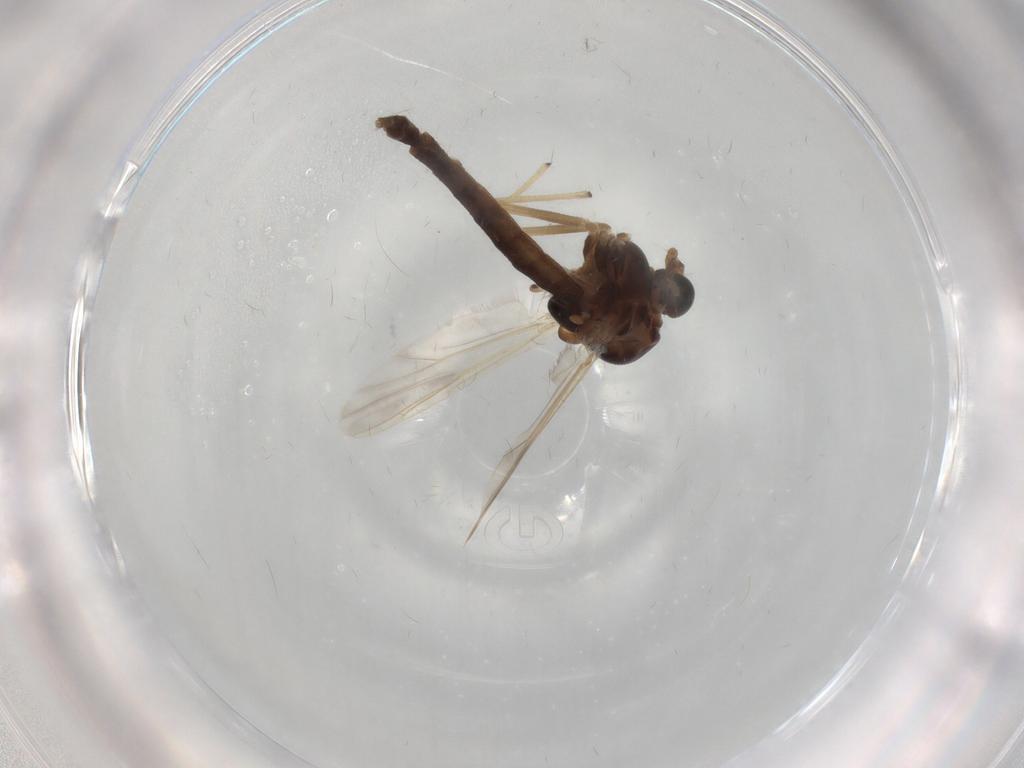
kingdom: Animalia
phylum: Arthropoda
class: Insecta
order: Diptera
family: Chironomidae
